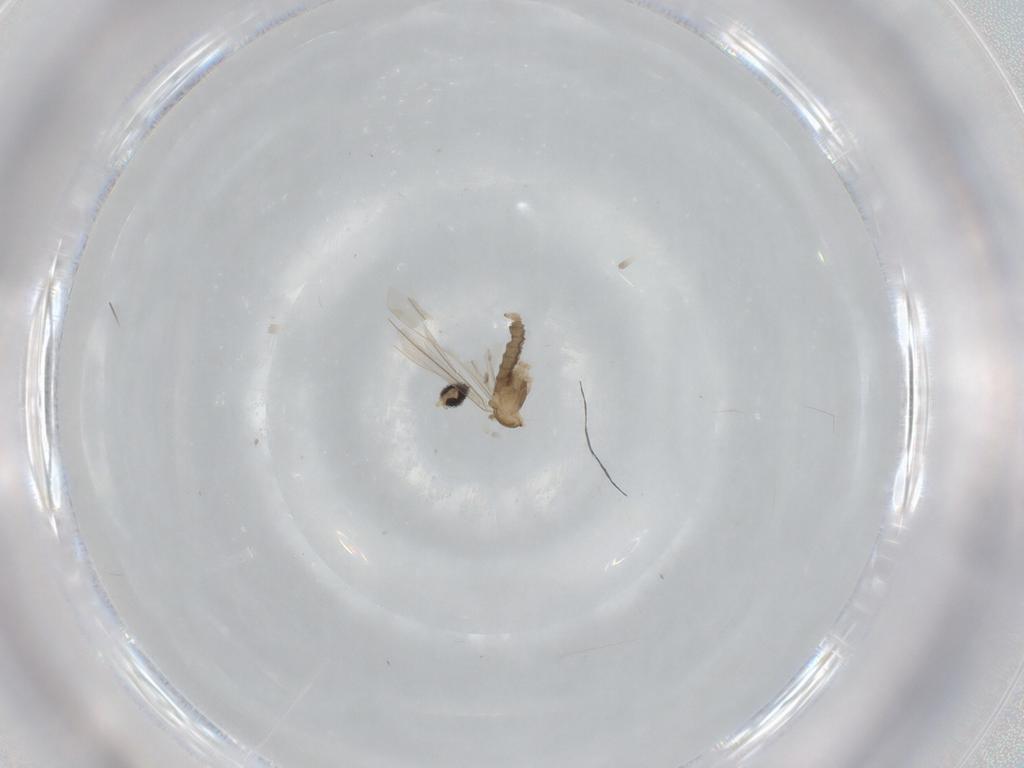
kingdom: Animalia
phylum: Arthropoda
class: Insecta
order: Diptera
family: Cecidomyiidae
